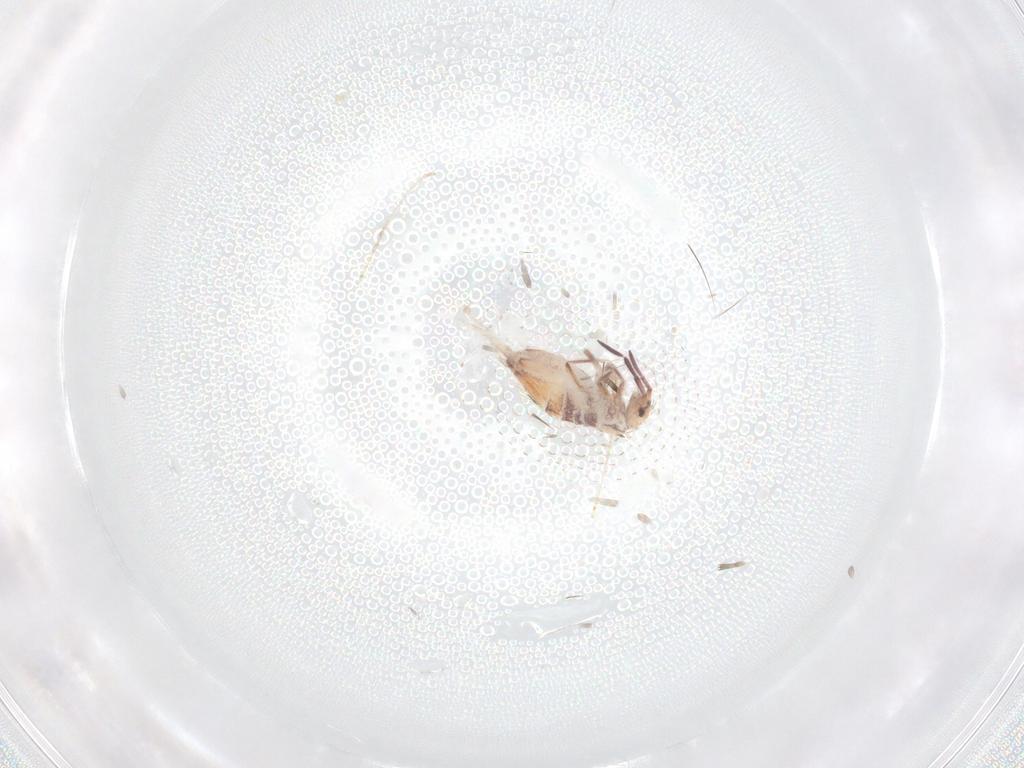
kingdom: Animalia
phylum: Arthropoda
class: Collembola
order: Entomobryomorpha
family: Entomobryidae
